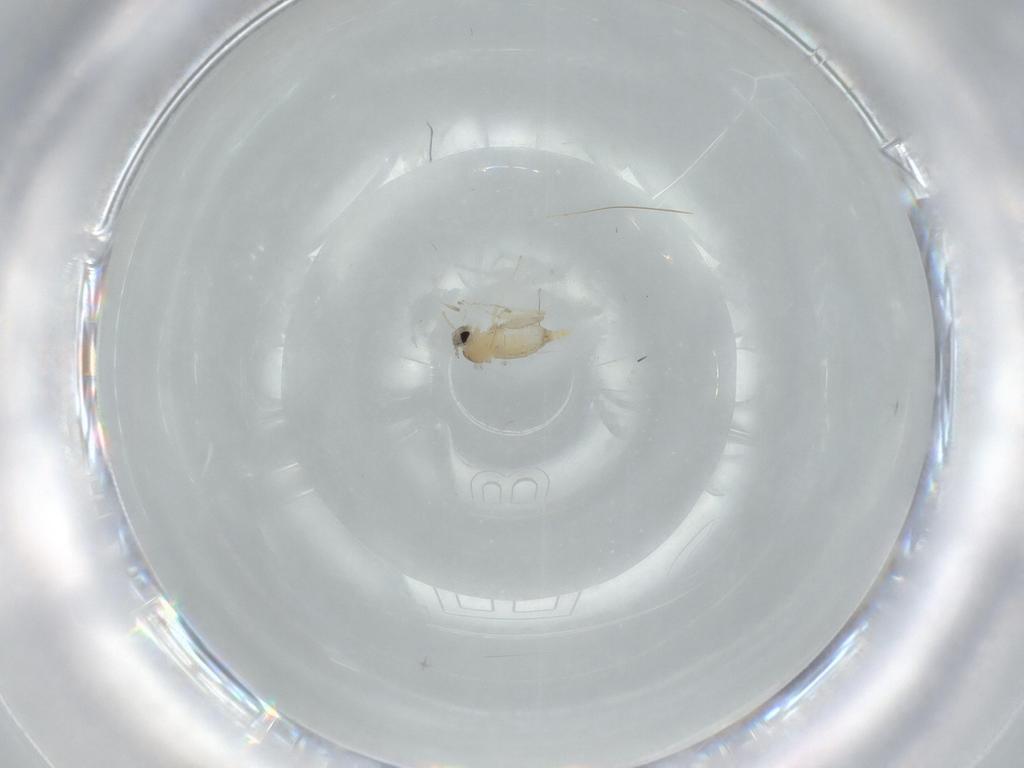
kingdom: Animalia
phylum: Arthropoda
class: Insecta
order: Diptera
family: Cecidomyiidae
